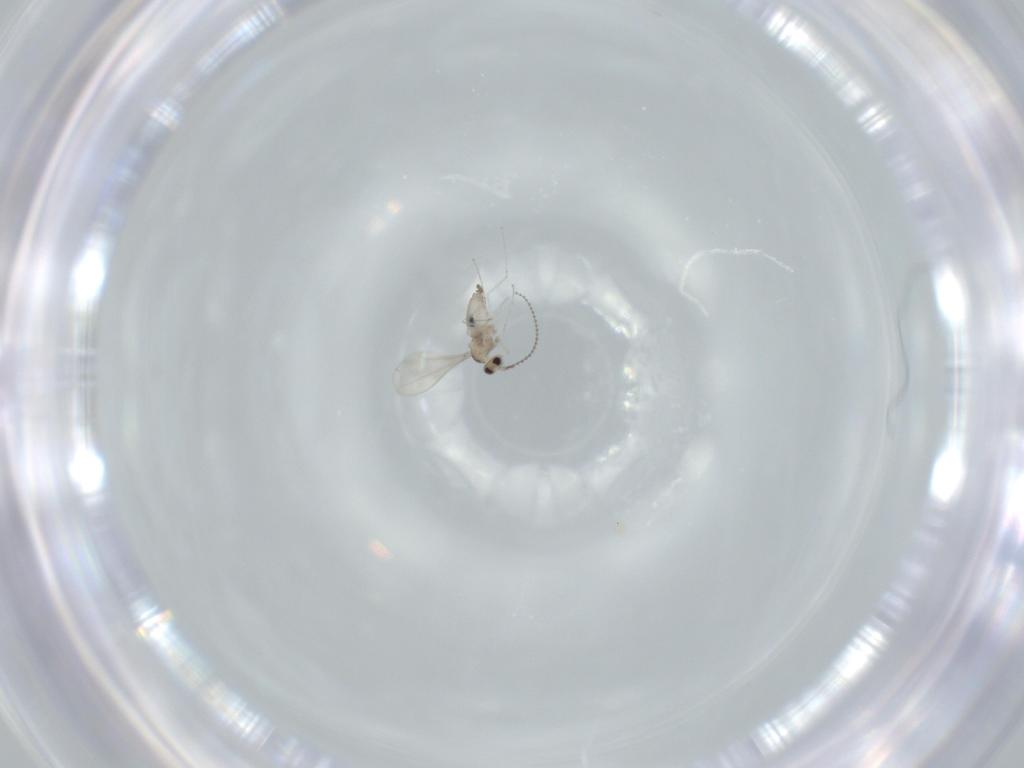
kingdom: Animalia
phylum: Arthropoda
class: Insecta
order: Diptera
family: Cecidomyiidae
